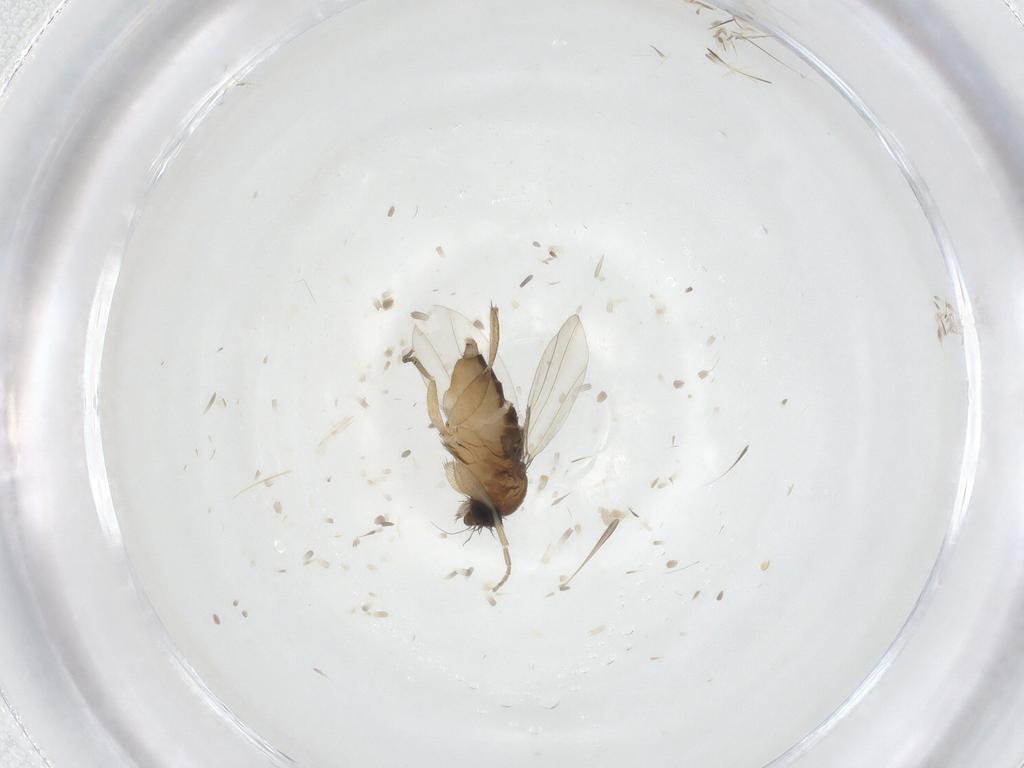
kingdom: Animalia
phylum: Arthropoda
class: Insecta
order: Diptera
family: Phoridae
